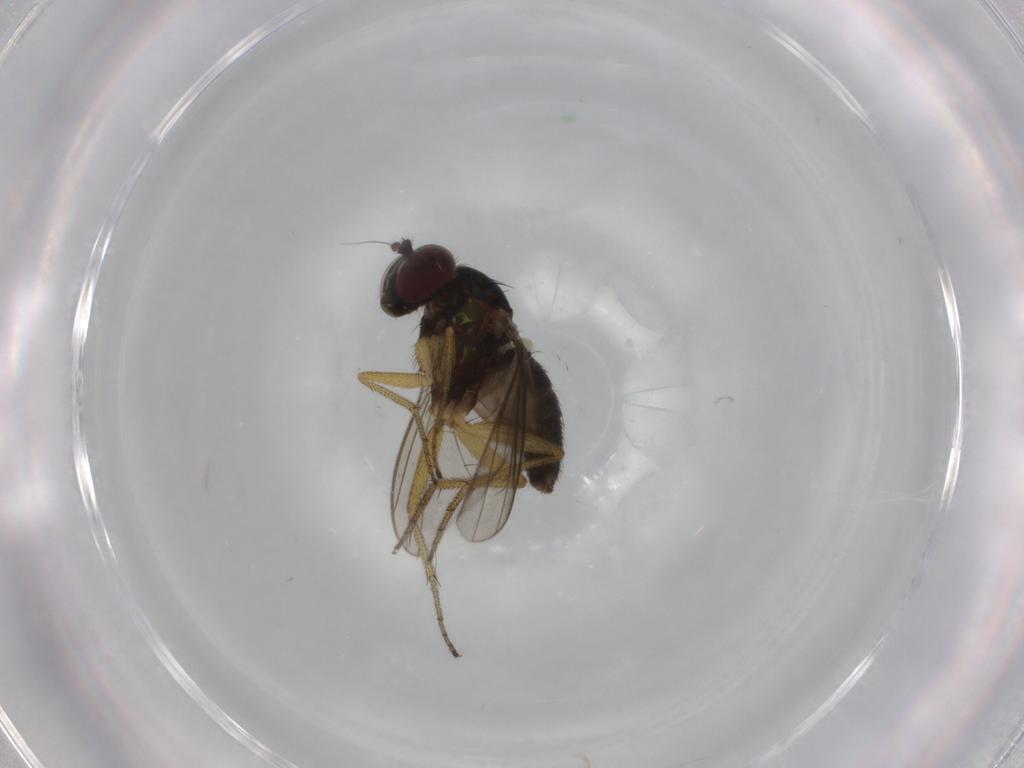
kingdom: Animalia
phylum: Arthropoda
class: Insecta
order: Diptera
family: Dolichopodidae
